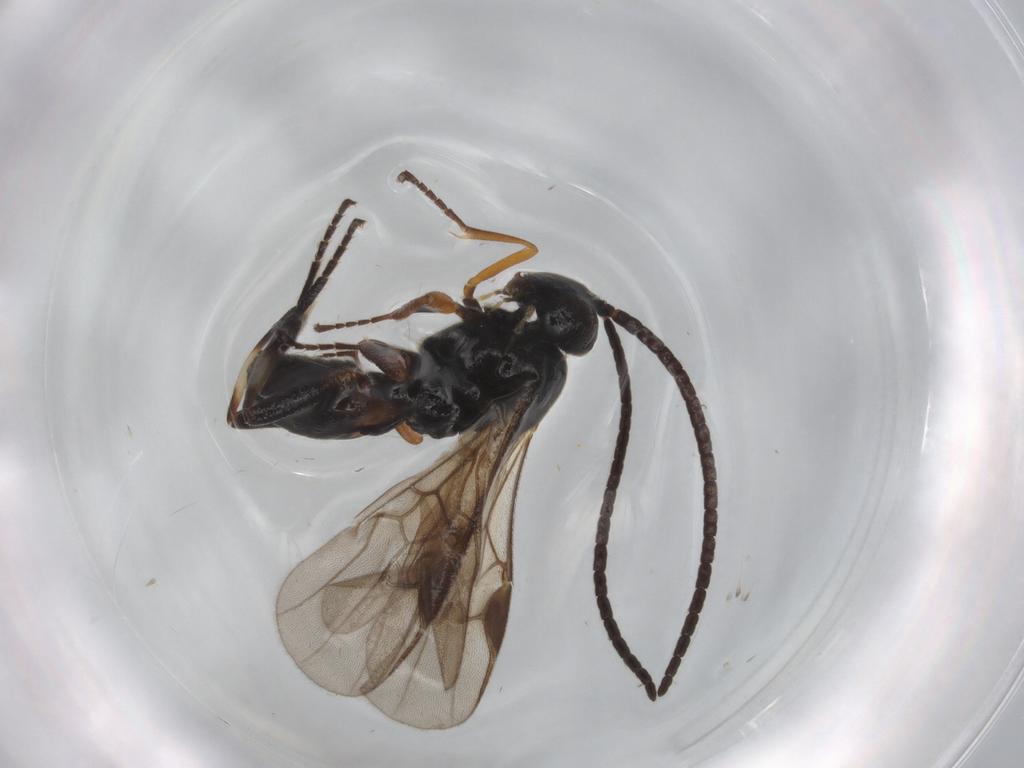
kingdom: Animalia
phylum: Arthropoda
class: Insecta
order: Hymenoptera
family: Braconidae
